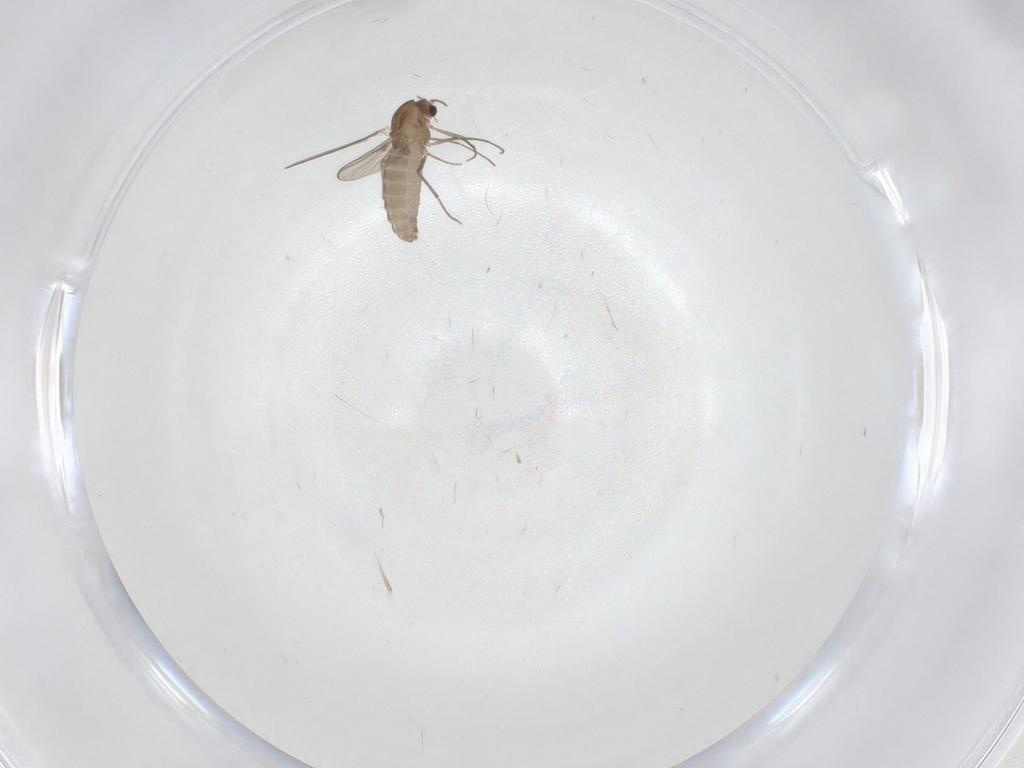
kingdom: Animalia
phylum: Arthropoda
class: Insecta
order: Diptera
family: Chironomidae
